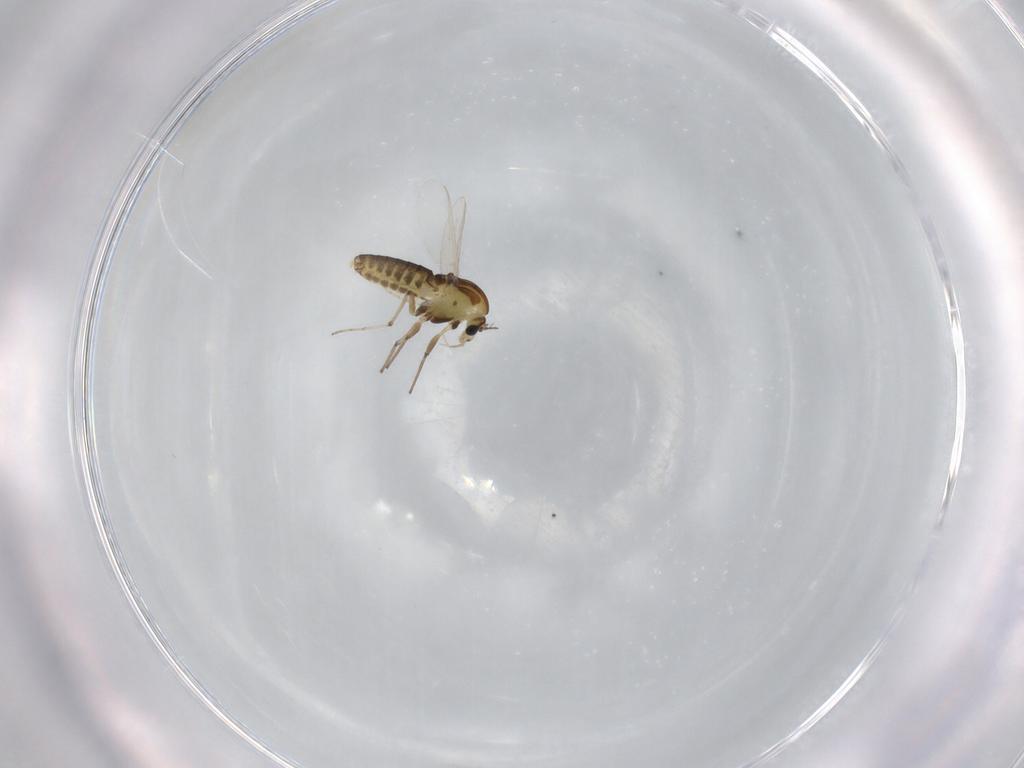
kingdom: Animalia
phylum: Arthropoda
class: Insecta
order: Diptera
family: Chironomidae
